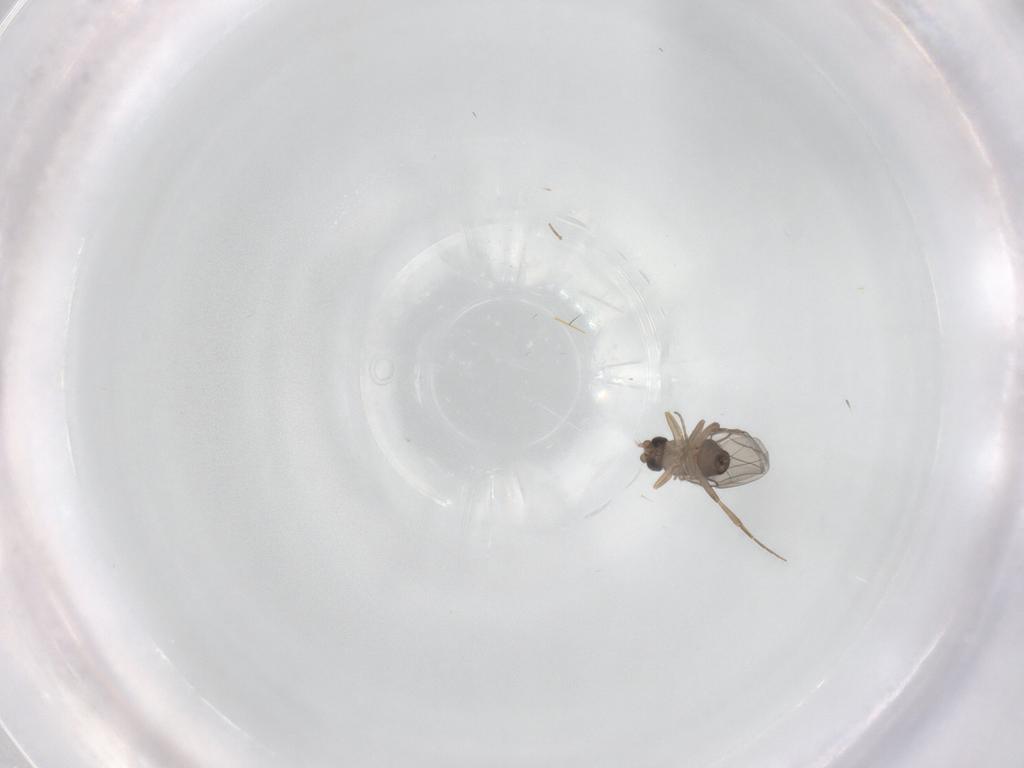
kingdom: Animalia
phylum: Arthropoda
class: Insecta
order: Diptera
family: Sciaridae
